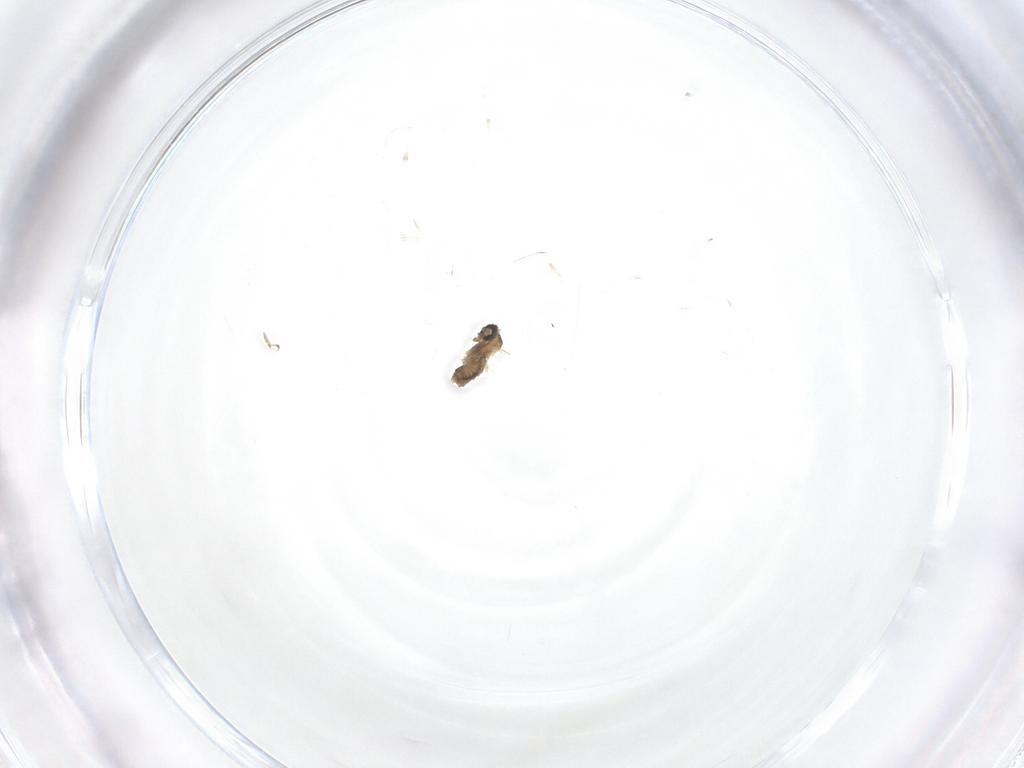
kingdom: Animalia
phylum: Arthropoda
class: Insecta
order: Diptera
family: Cecidomyiidae
